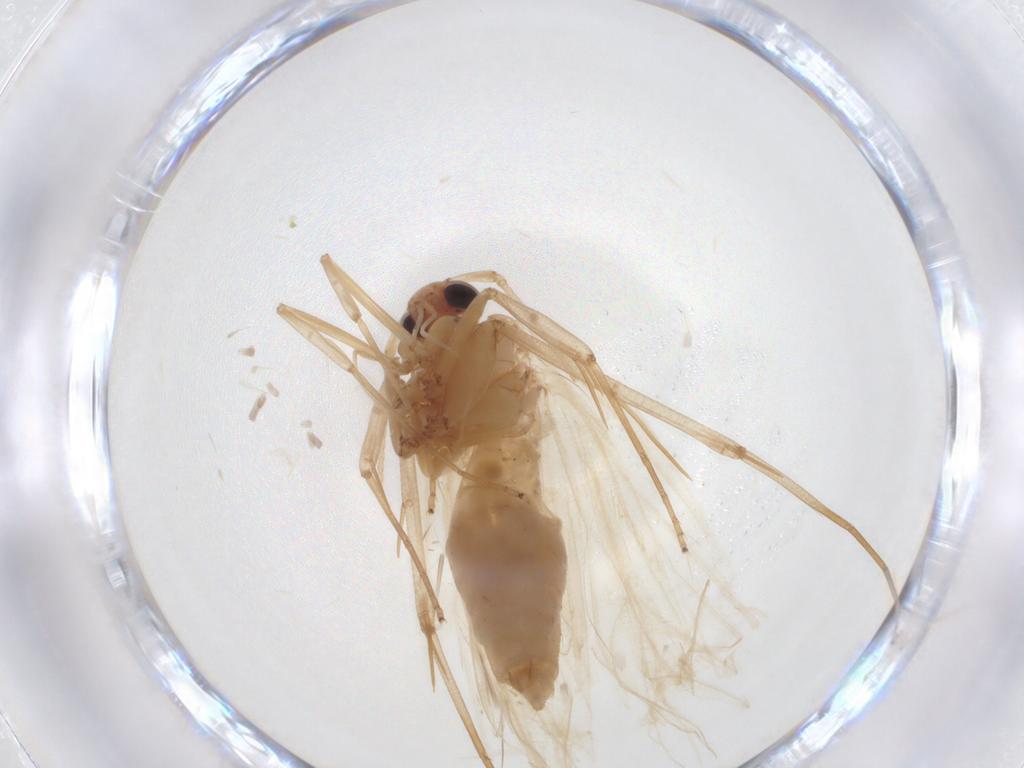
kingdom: Animalia
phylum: Arthropoda
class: Insecta
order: Lepidoptera
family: Lecithoceridae
